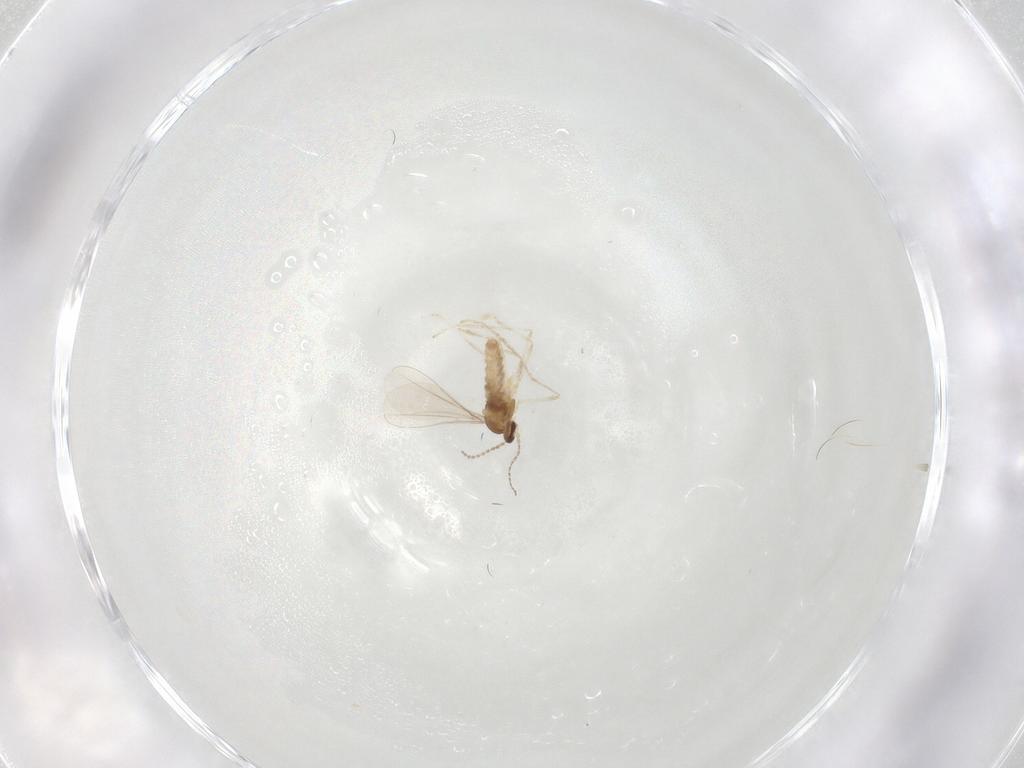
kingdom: Animalia
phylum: Arthropoda
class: Insecta
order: Diptera
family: Cecidomyiidae
